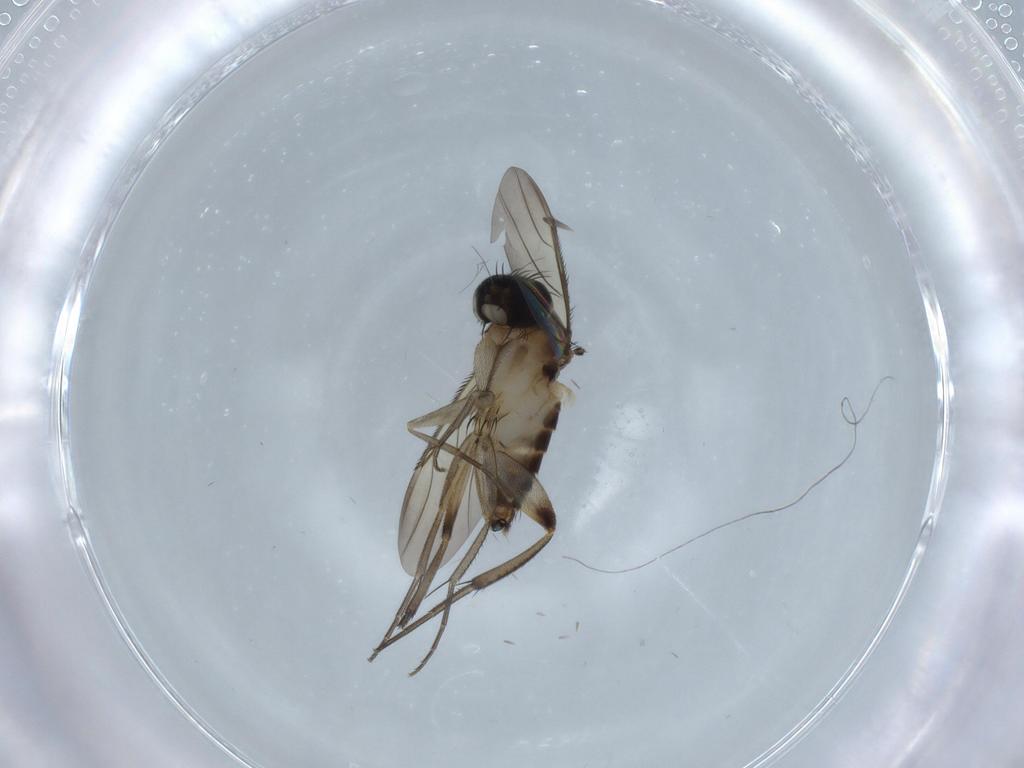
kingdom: Animalia
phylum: Arthropoda
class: Insecta
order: Diptera
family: Phoridae
